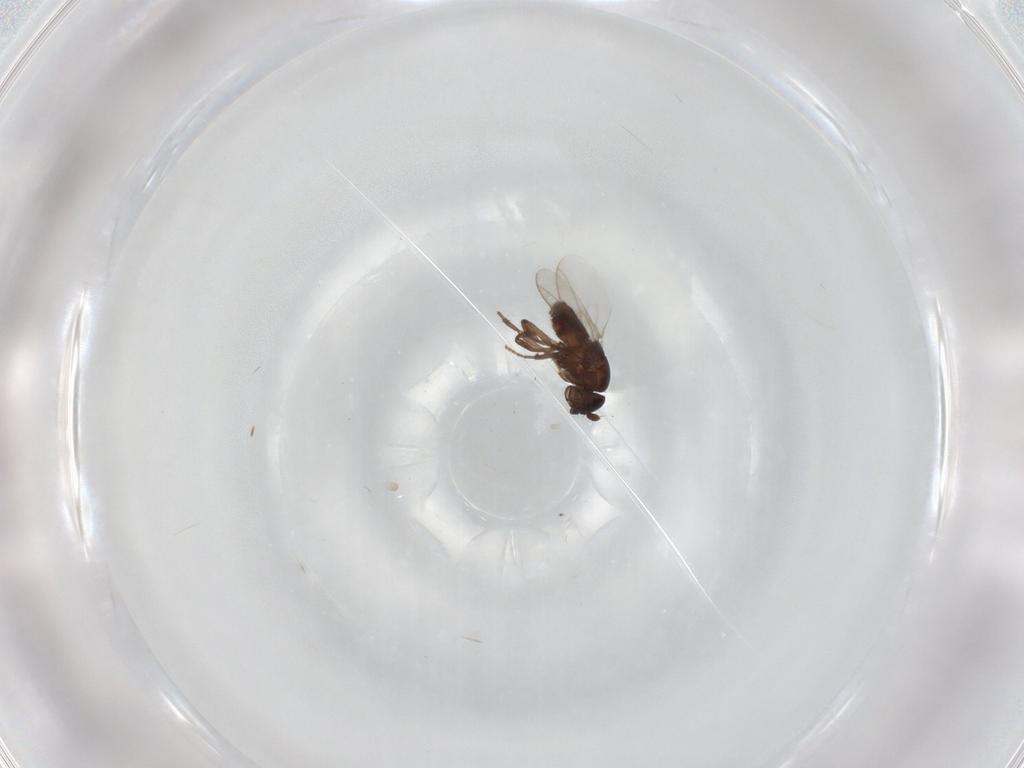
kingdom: Animalia
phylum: Arthropoda
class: Insecta
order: Diptera
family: Sphaeroceridae
